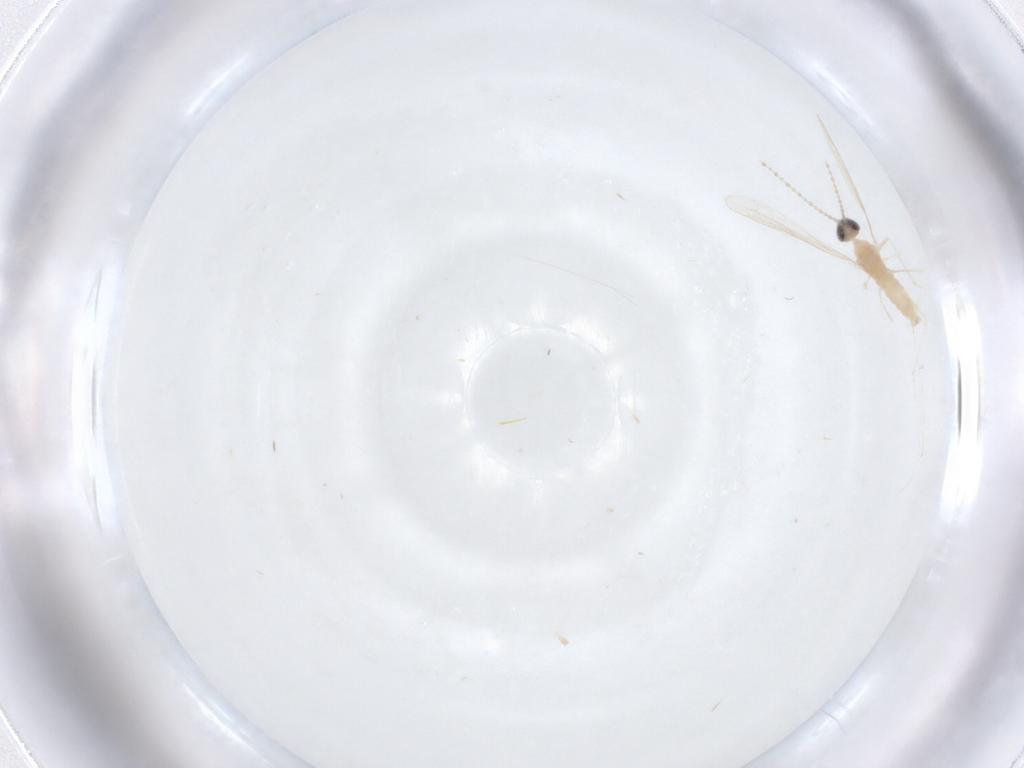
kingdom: Animalia
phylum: Arthropoda
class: Insecta
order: Diptera
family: Cecidomyiidae
